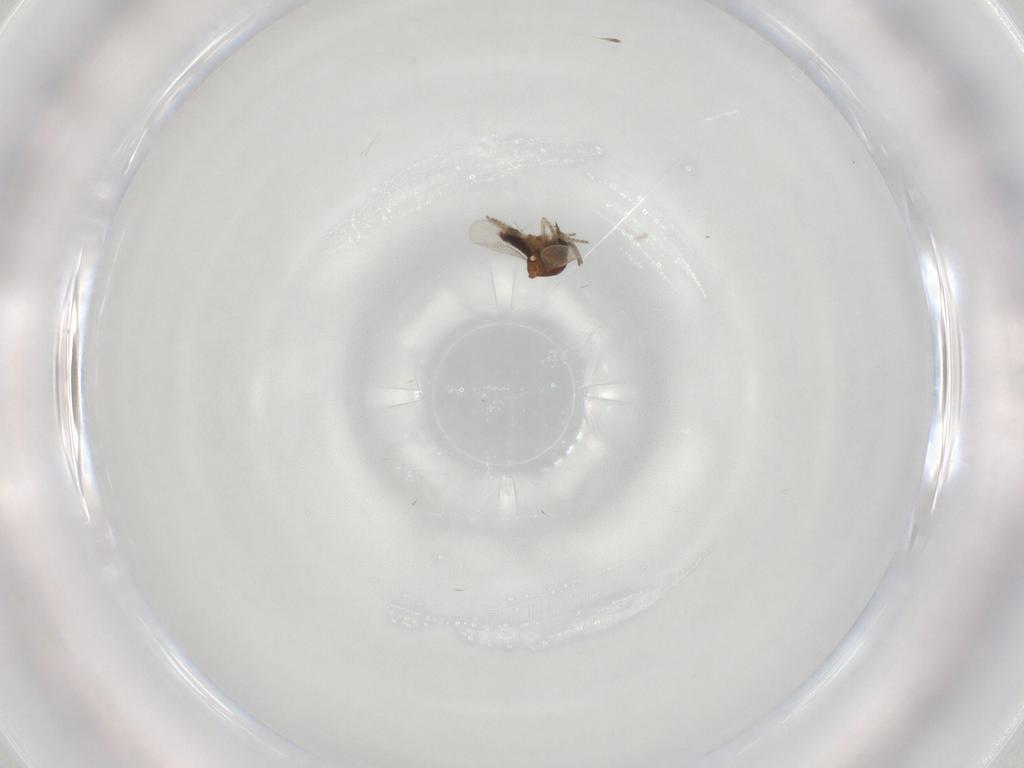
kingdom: Animalia
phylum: Arthropoda
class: Insecta
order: Diptera
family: Ceratopogonidae
